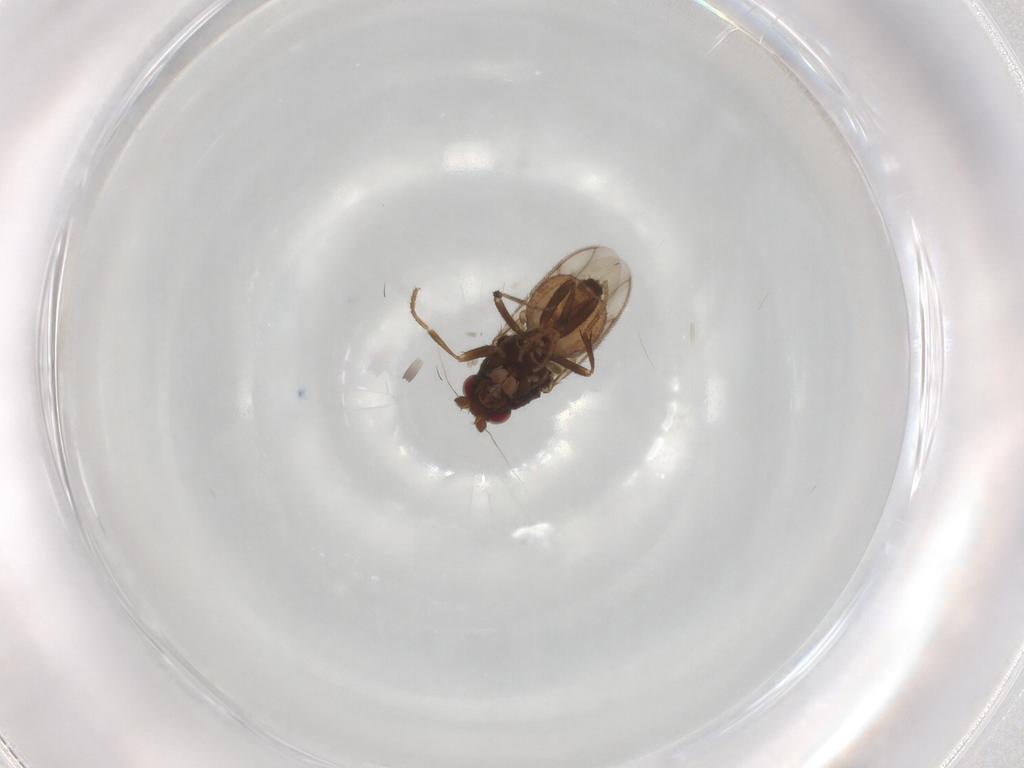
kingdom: Animalia
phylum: Arthropoda
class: Insecta
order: Diptera
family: Sphaeroceridae
